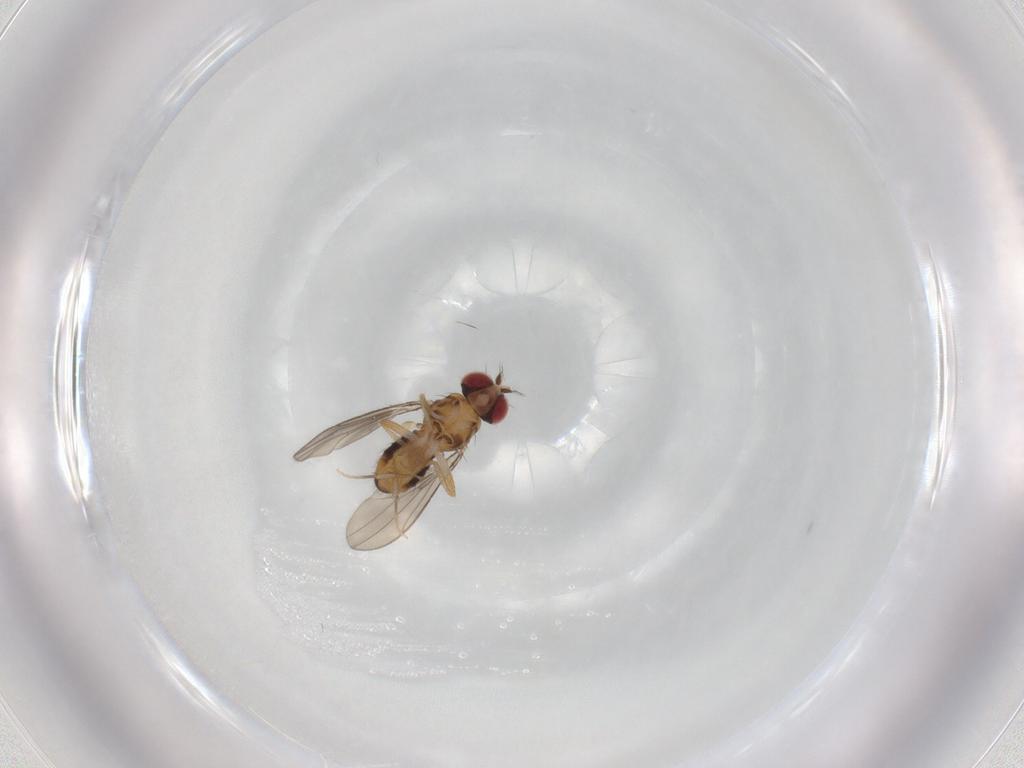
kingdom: Animalia
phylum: Arthropoda
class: Insecta
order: Diptera
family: Drosophilidae
